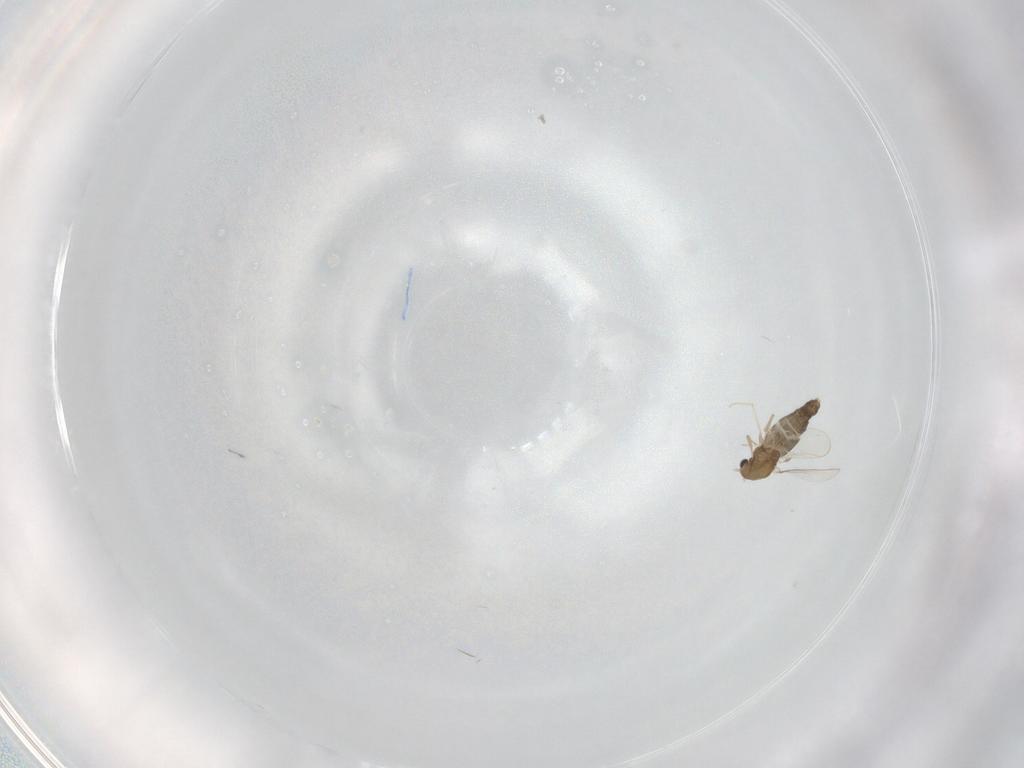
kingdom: Animalia
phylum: Arthropoda
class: Insecta
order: Diptera
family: Chironomidae
